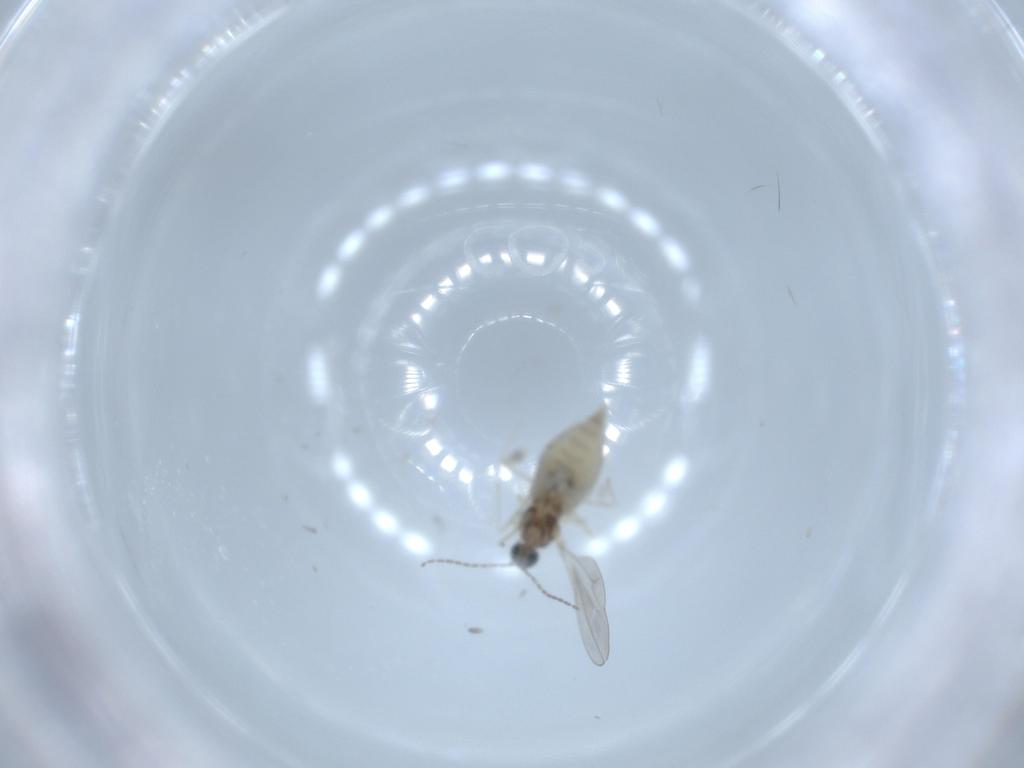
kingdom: Animalia
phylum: Arthropoda
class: Insecta
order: Diptera
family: Cecidomyiidae
